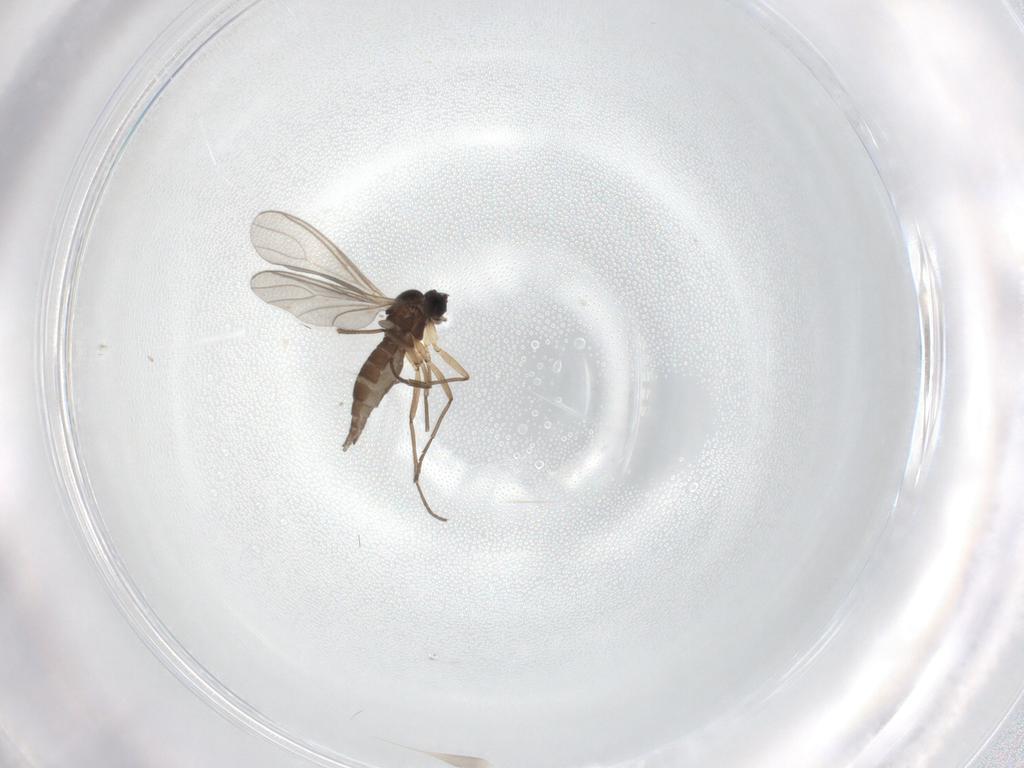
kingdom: Animalia
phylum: Arthropoda
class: Insecta
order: Diptera
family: Sciaridae
